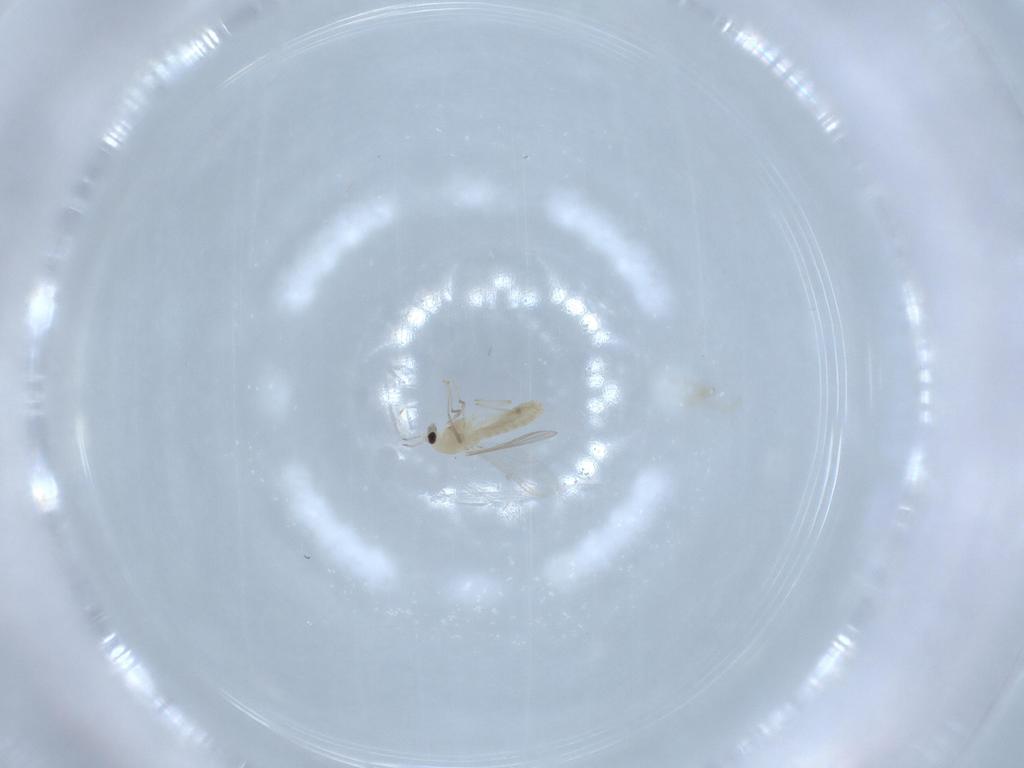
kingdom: Animalia
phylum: Arthropoda
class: Insecta
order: Diptera
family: Chironomidae
